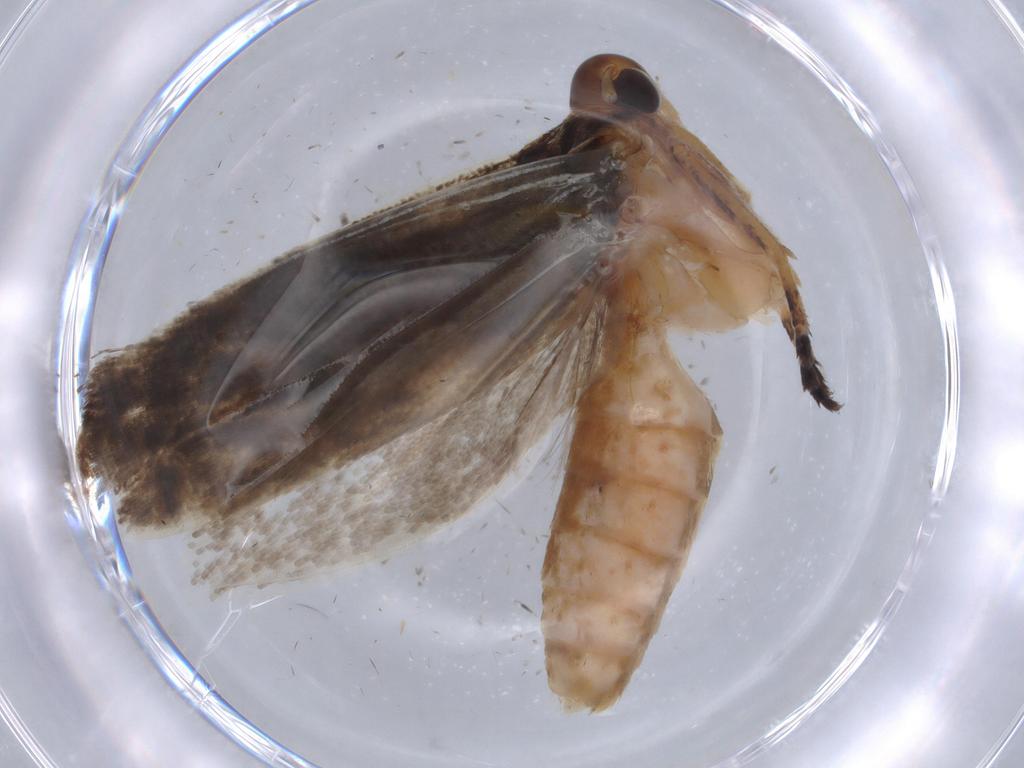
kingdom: Animalia
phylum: Arthropoda
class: Insecta
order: Lepidoptera
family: Gelechiidae
